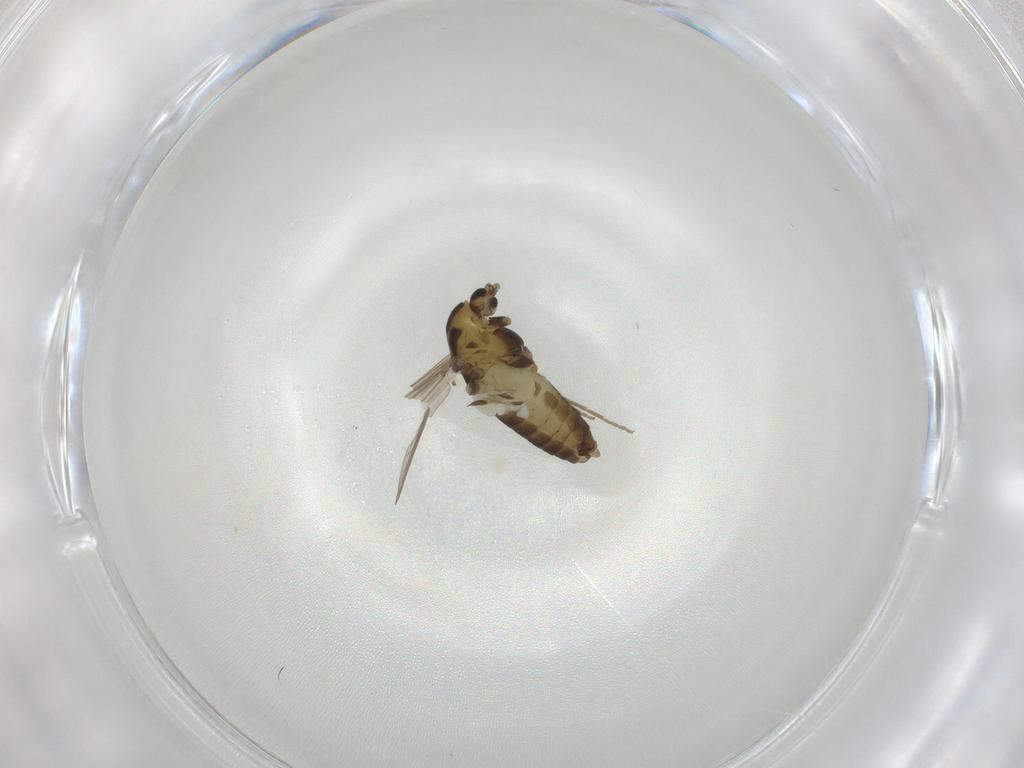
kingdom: Animalia
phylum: Arthropoda
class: Insecta
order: Diptera
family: Chironomidae
